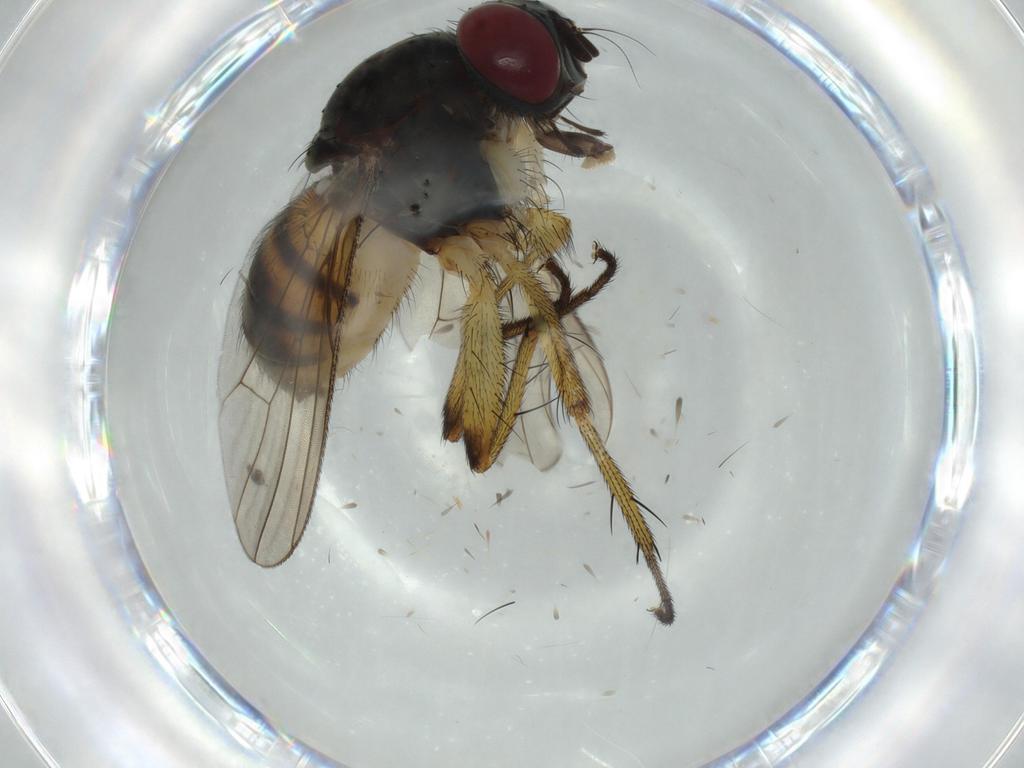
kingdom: Animalia
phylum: Arthropoda
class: Insecta
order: Diptera
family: Muscidae
